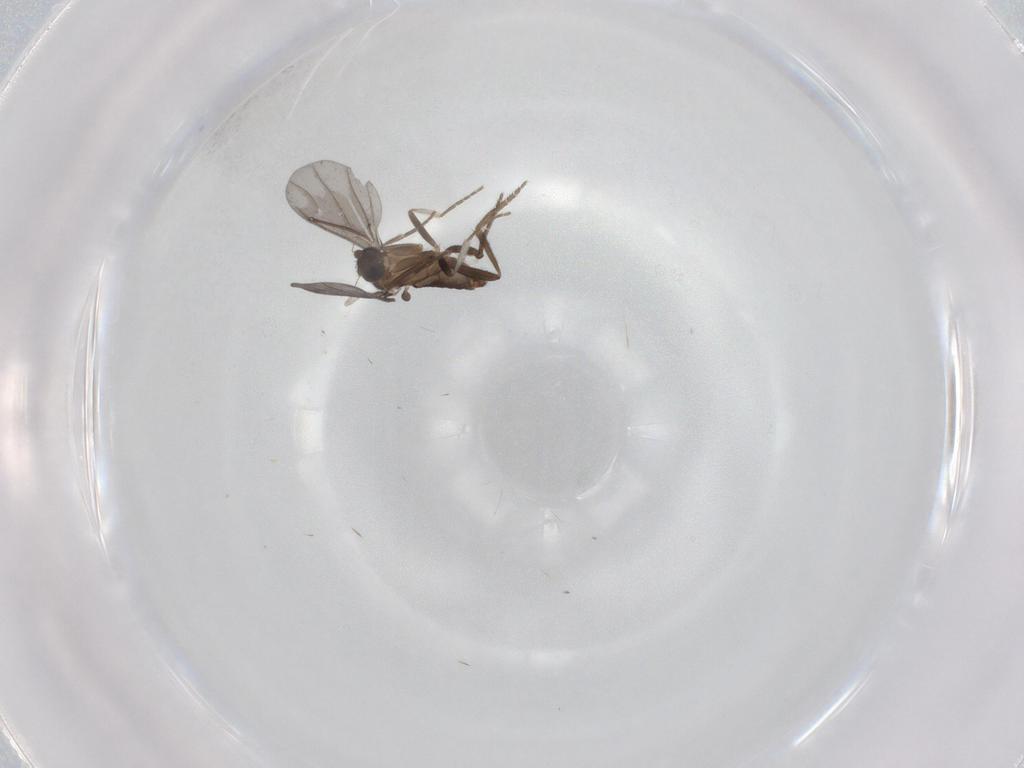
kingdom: Animalia
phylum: Arthropoda
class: Insecta
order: Diptera
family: Phoridae
